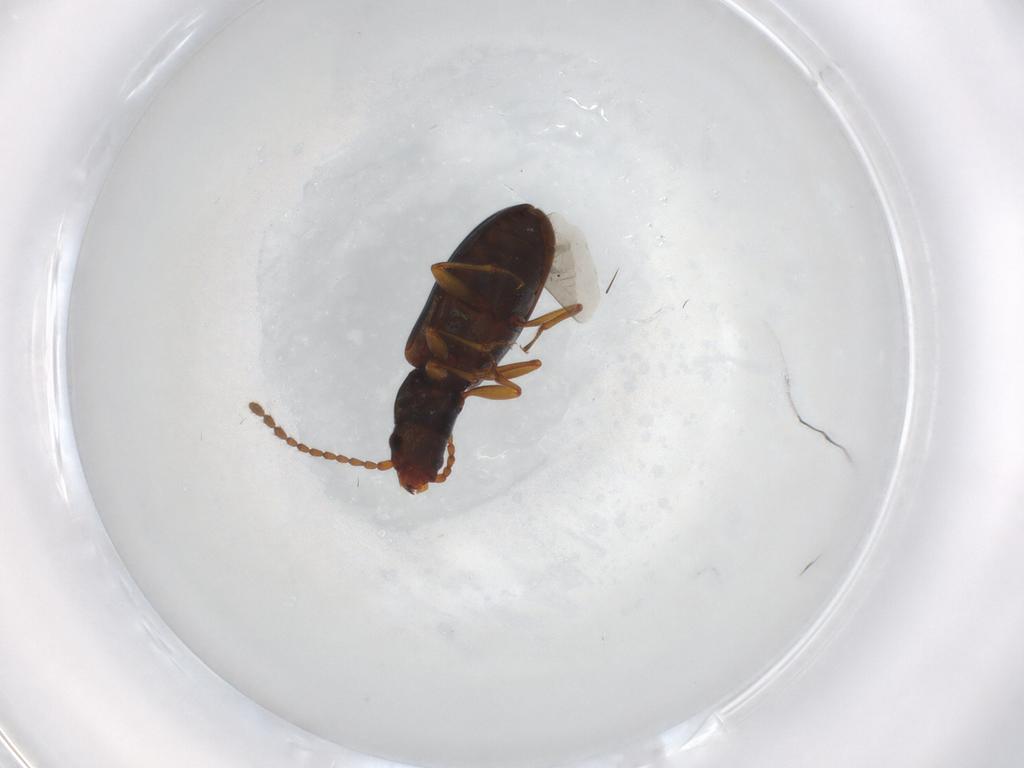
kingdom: Animalia
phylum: Arthropoda
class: Insecta
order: Coleoptera
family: Laemophloeidae
